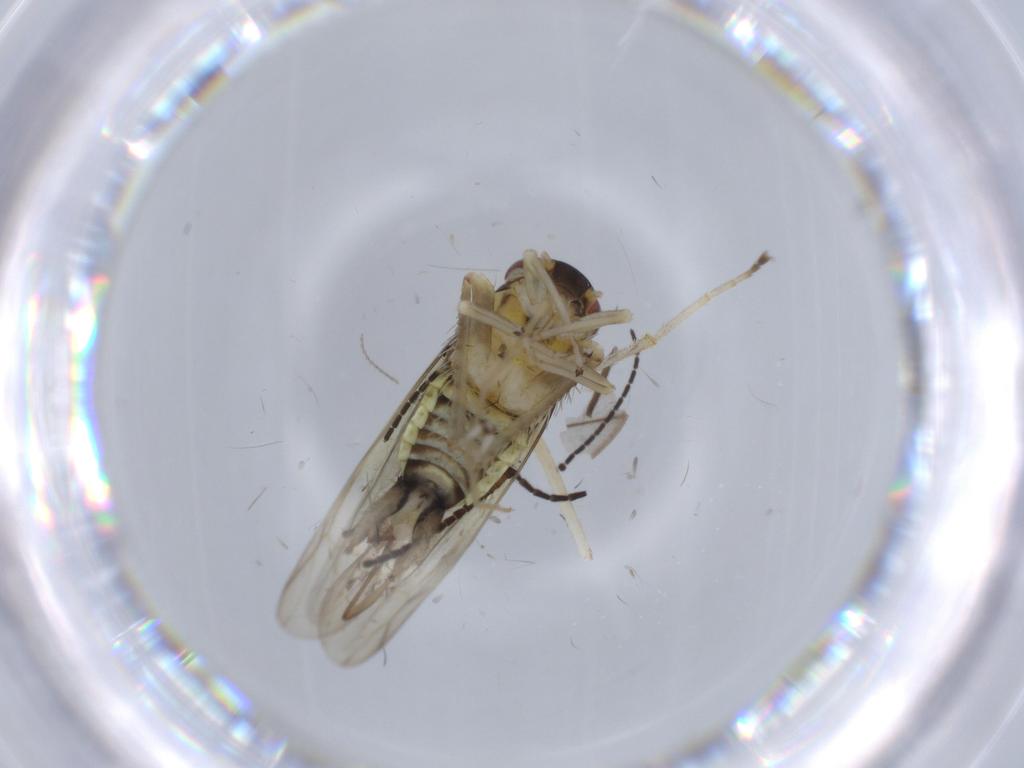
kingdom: Animalia
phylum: Arthropoda
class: Insecta
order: Hemiptera
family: Cicadellidae
